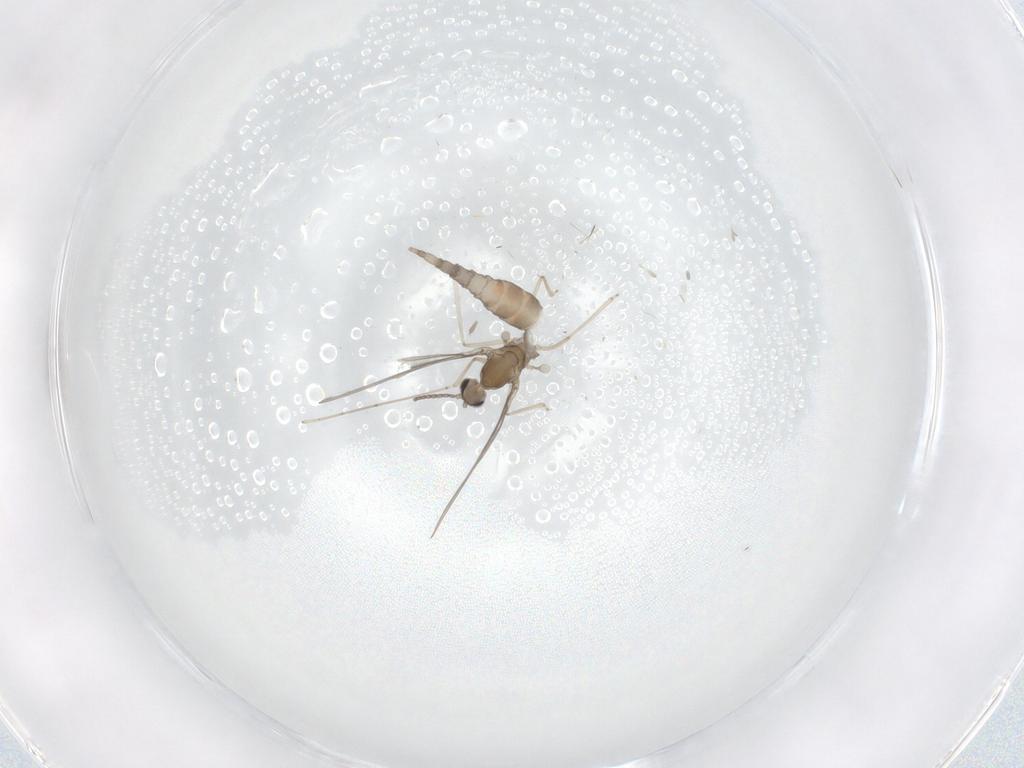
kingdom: Animalia
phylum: Arthropoda
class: Insecta
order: Diptera
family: Cecidomyiidae
